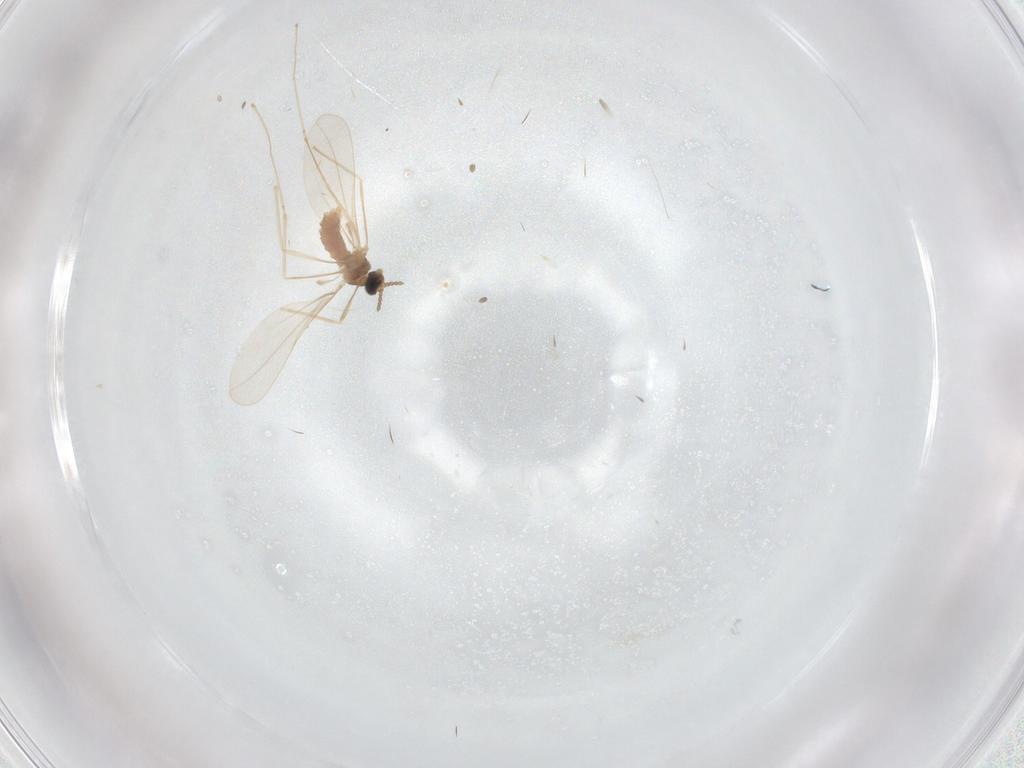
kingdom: Animalia
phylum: Arthropoda
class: Insecta
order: Diptera
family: Cecidomyiidae
